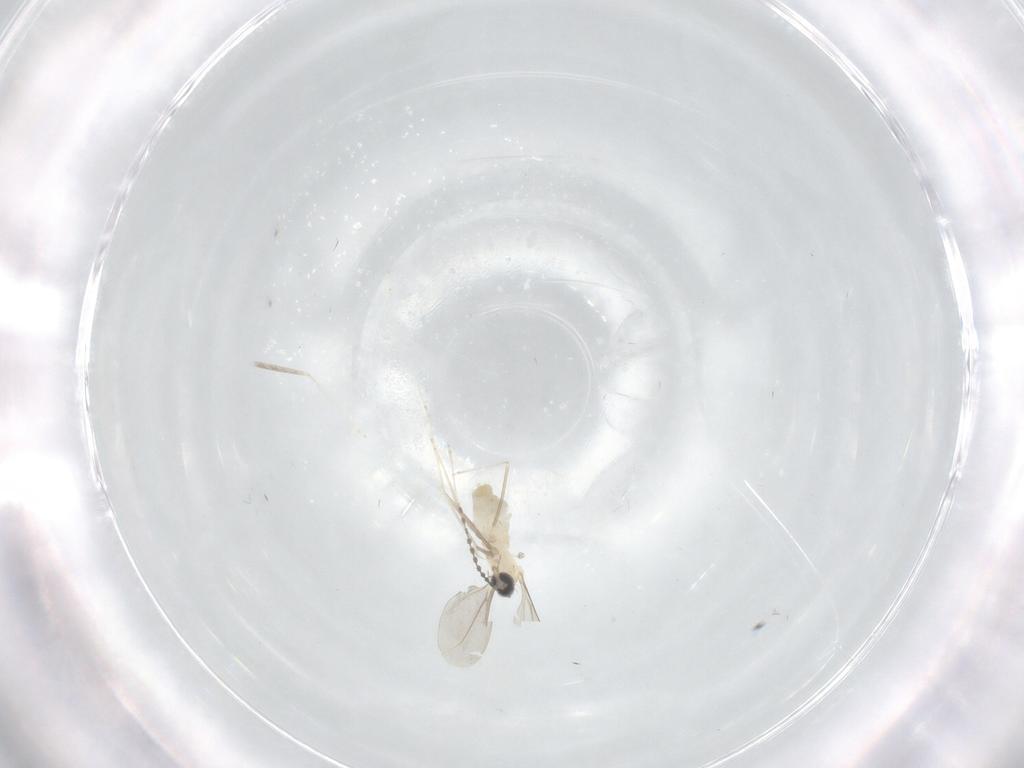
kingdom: Animalia
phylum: Arthropoda
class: Insecta
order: Diptera
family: Cecidomyiidae
